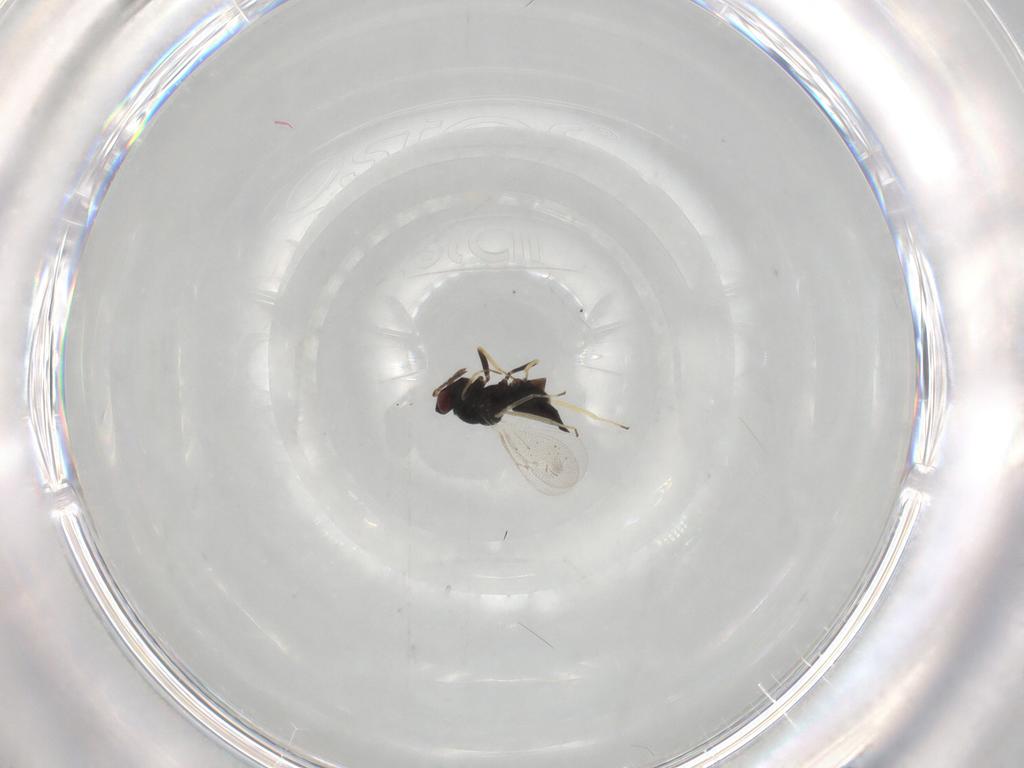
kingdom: Animalia
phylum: Arthropoda
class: Insecta
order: Hymenoptera
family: Eulophidae
